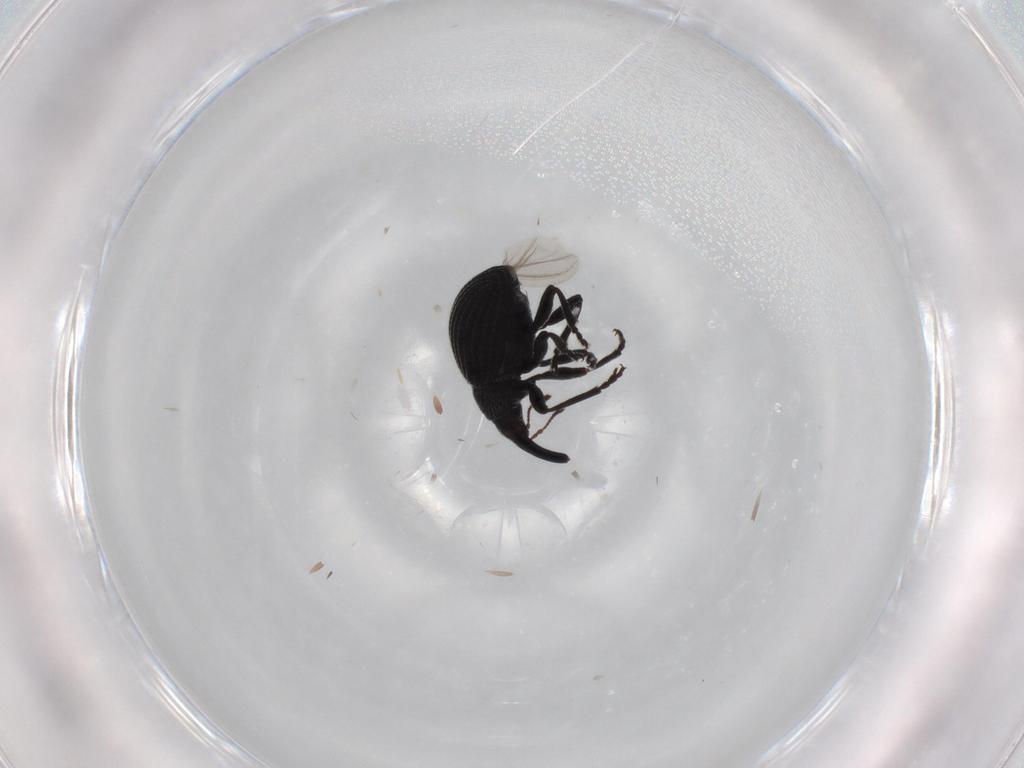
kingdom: Animalia
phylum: Arthropoda
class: Insecta
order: Coleoptera
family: Brentidae
